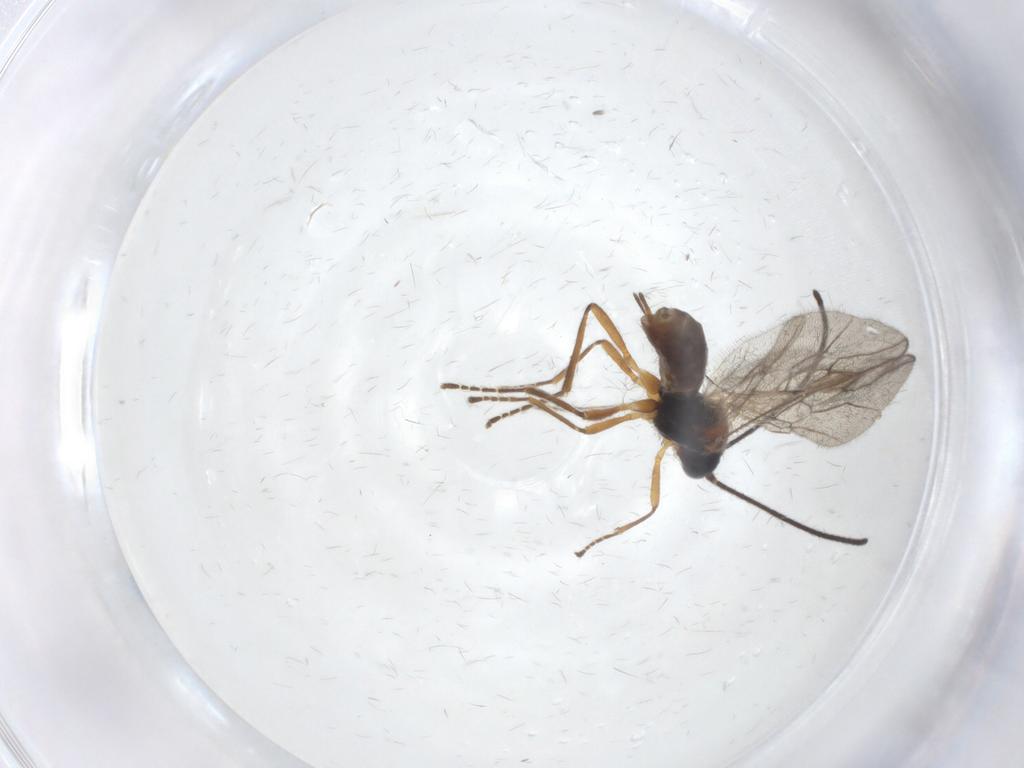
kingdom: Animalia
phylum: Arthropoda
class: Insecta
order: Hymenoptera
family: Braconidae
